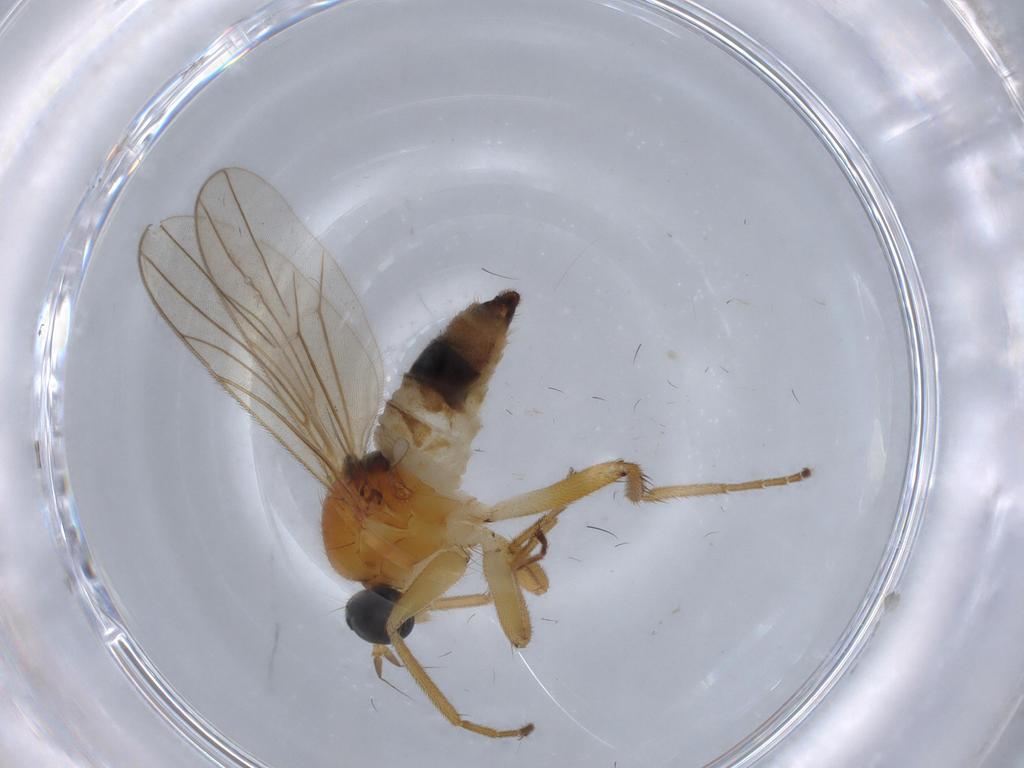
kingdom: Animalia
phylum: Arthropoda
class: Insecta
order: Diptera
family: Hybotidae
